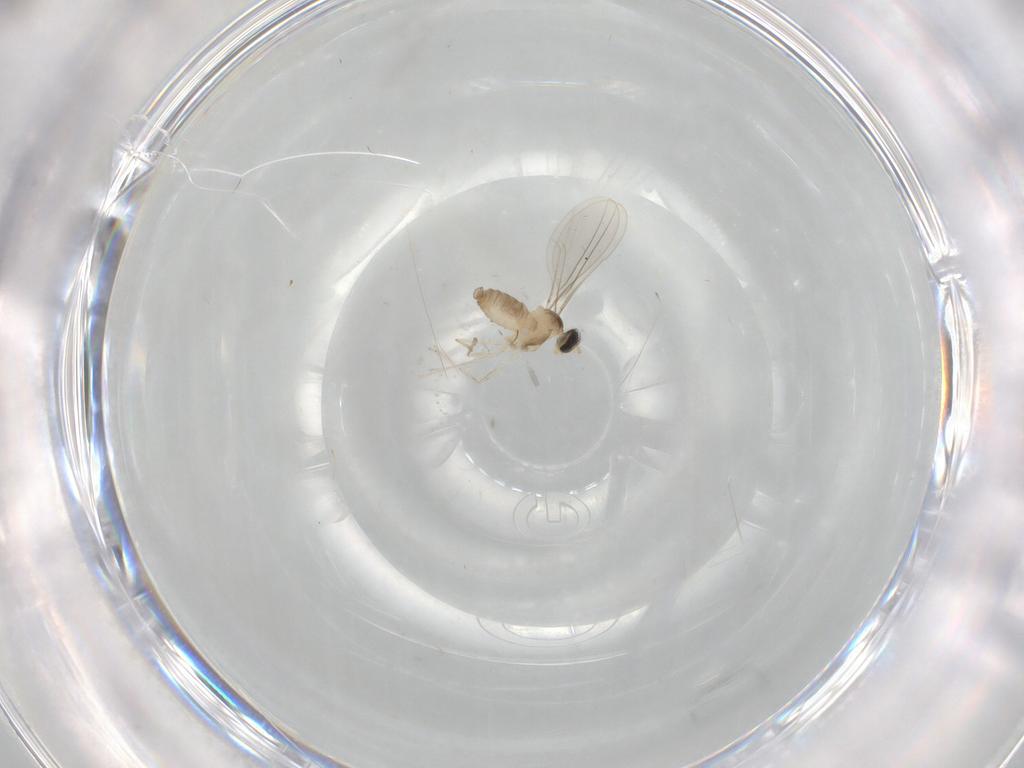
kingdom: Animalia
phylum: Arthropoda
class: Insecta
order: Diptera
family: Cecidomyiidae
